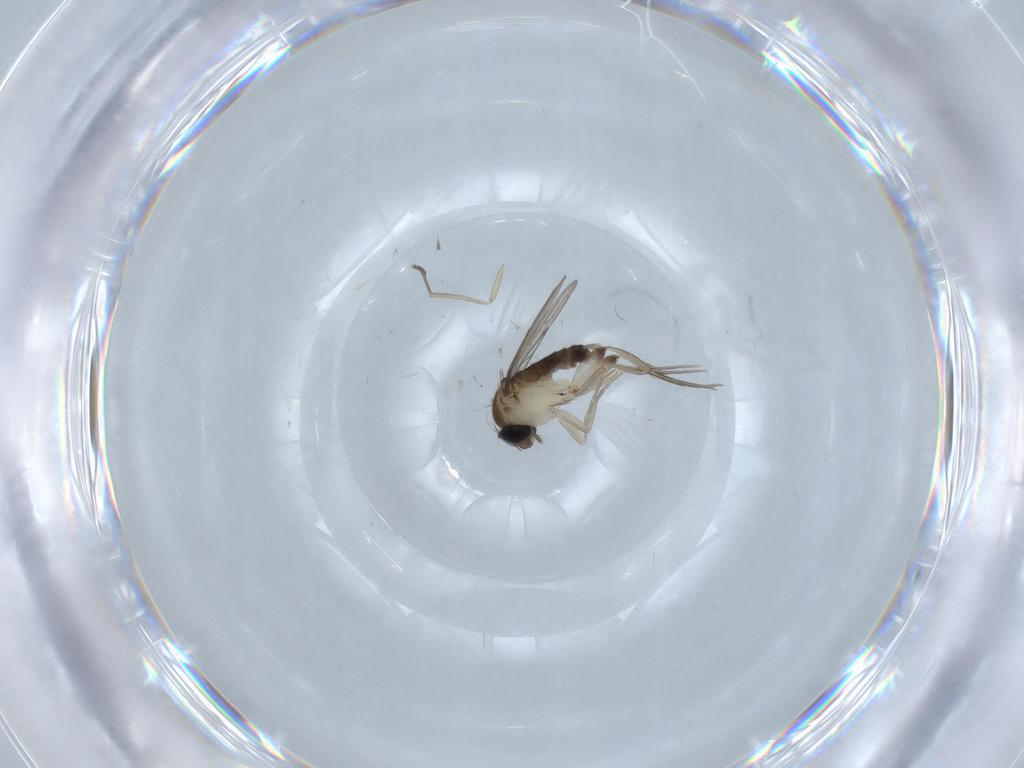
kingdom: Animalia
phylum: Arthropoda
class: Insecta
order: Diptera
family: Phoridae
